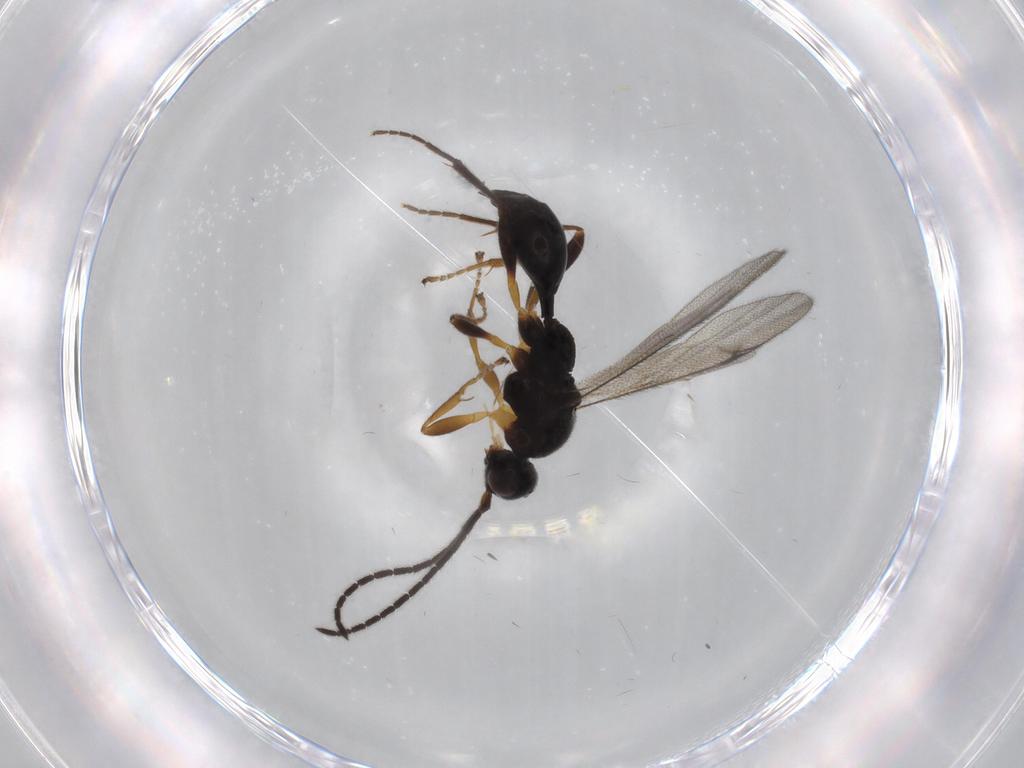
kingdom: Animalia
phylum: Arthropoda
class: Insecta
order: Hymenoptera
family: Proctotrupidae
